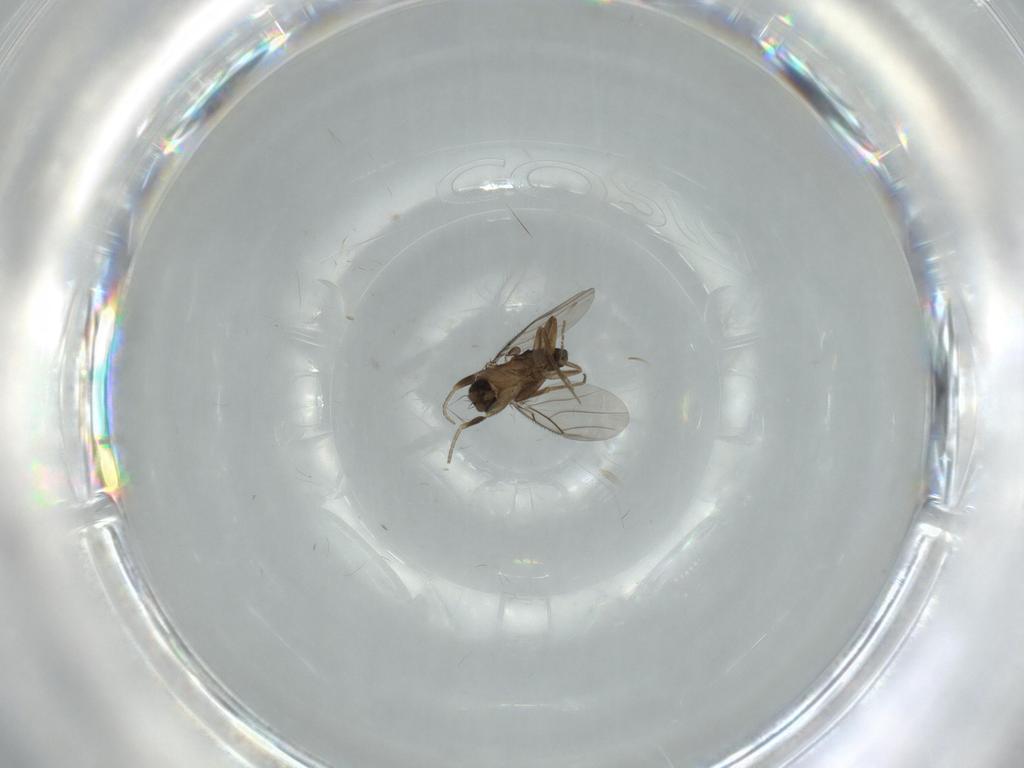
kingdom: Animalia
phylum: Arthropoda
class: Insecta
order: Diptera
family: Phoridae
